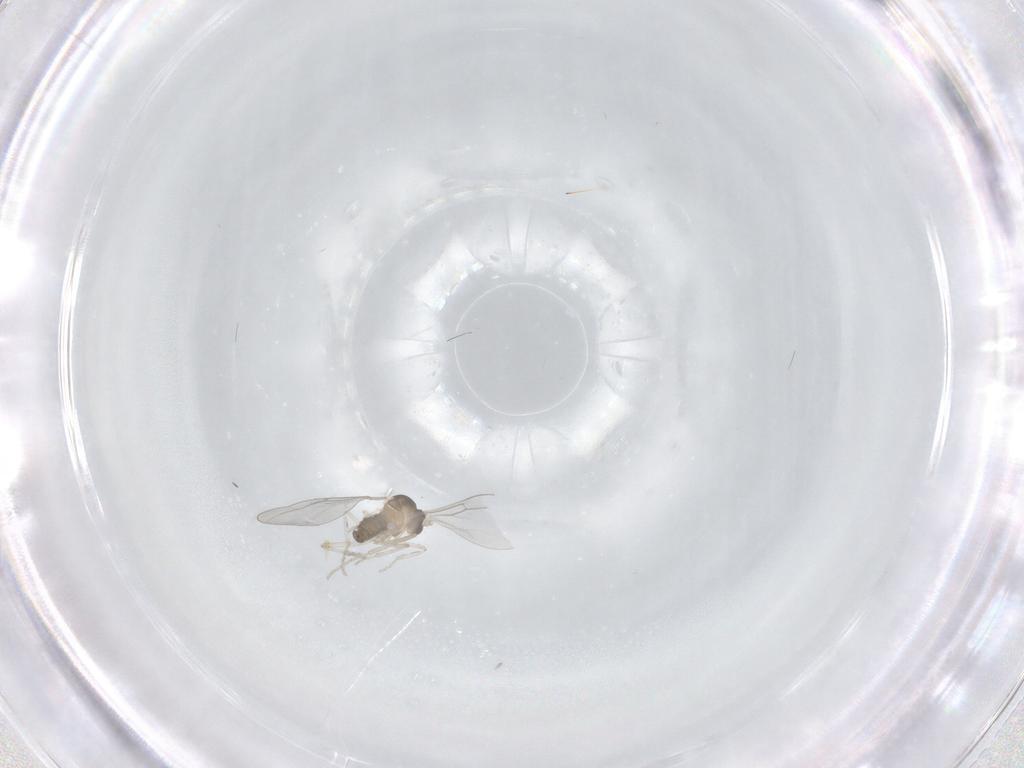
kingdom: Animalia
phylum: Arthropoda
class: Insecta
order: Diptera
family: Cecidomyiidae
